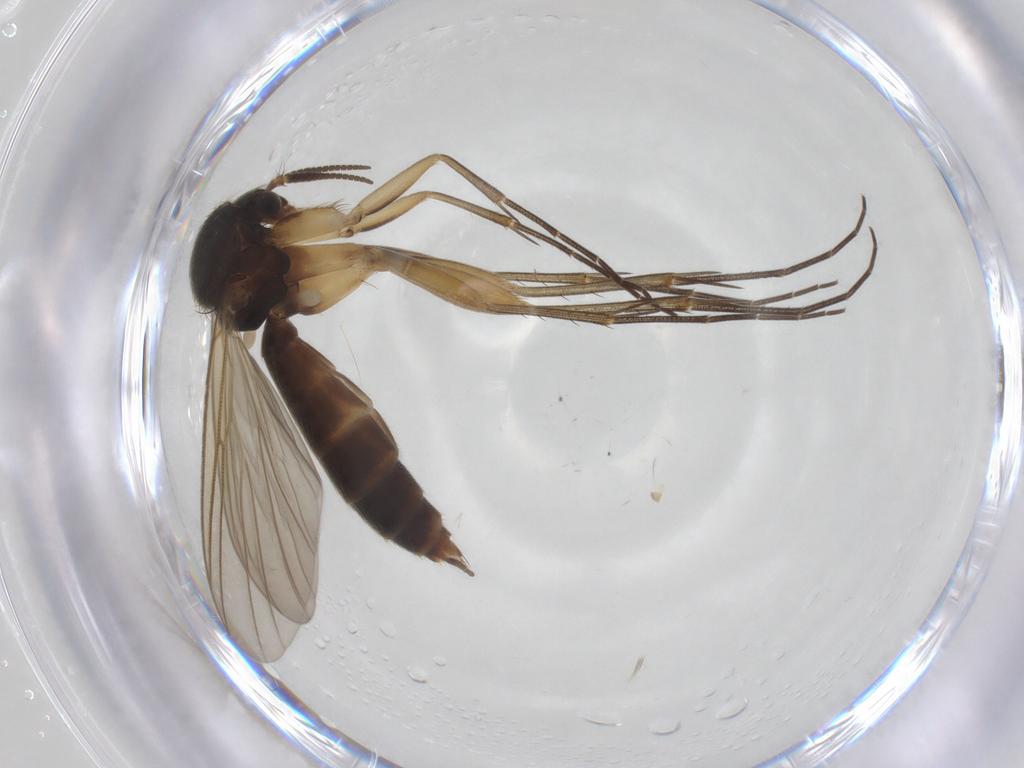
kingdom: Animalia
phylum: Arthropoda
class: Insecta
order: Diptera
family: Mycetophilidae
